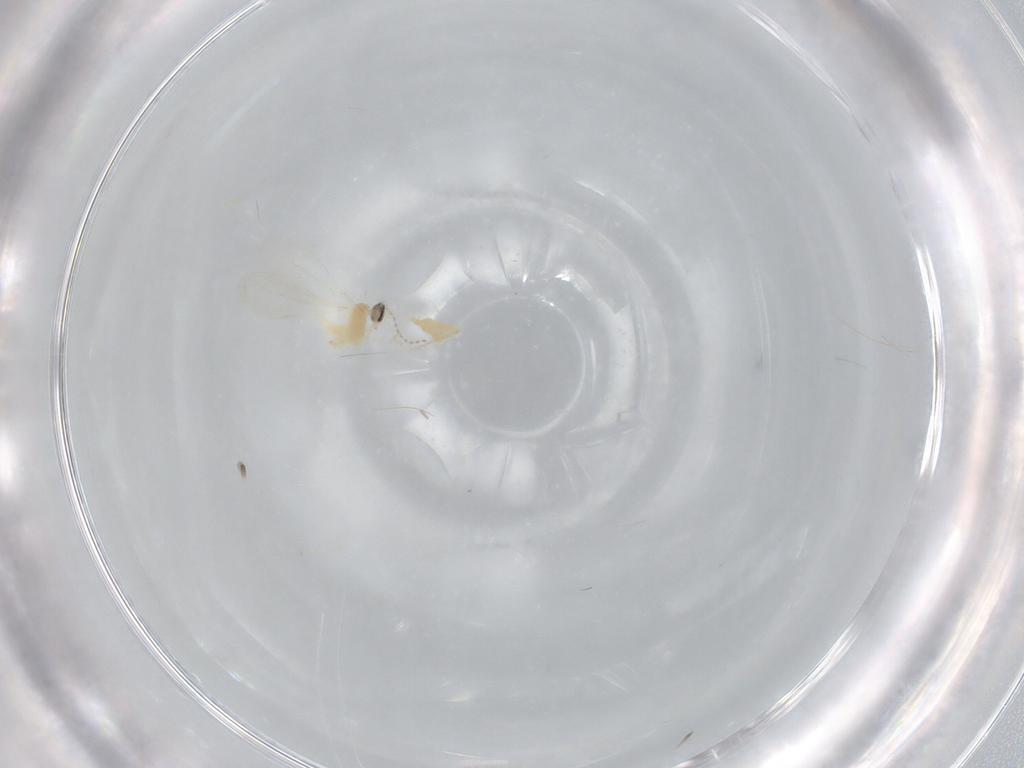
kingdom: Animalia
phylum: Arthropoda
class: Insecta
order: Diptera
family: Cecidomyiidae
